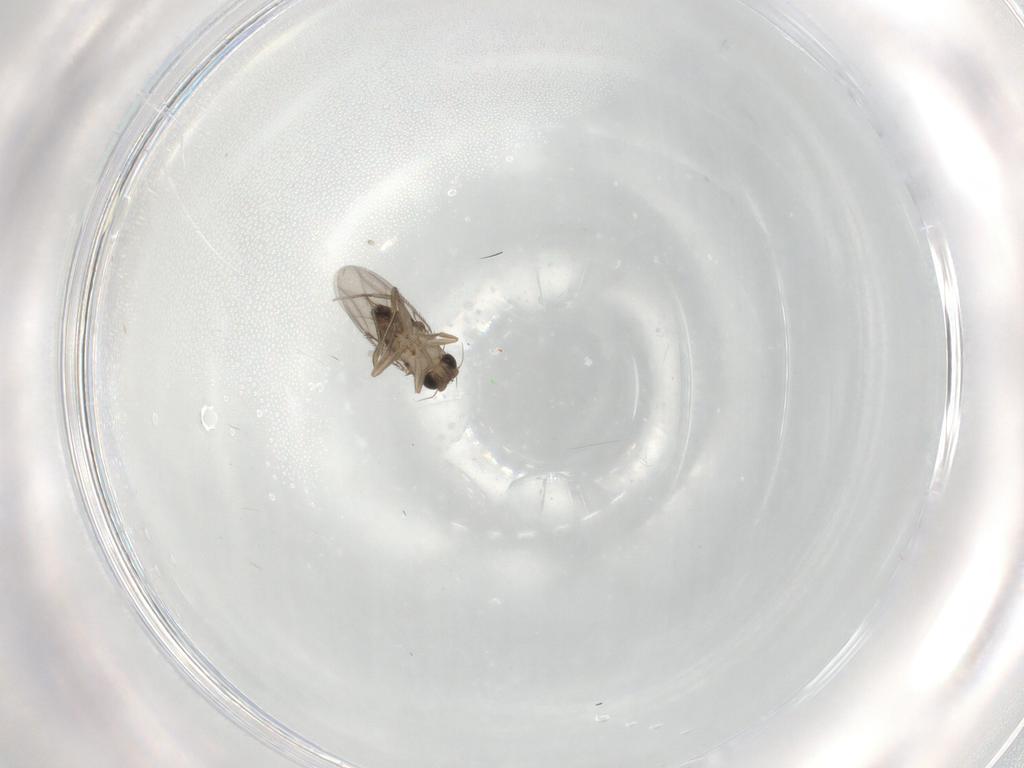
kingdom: Animalia
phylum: Arthropoda
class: Insecta
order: Diptera
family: Phoridae
